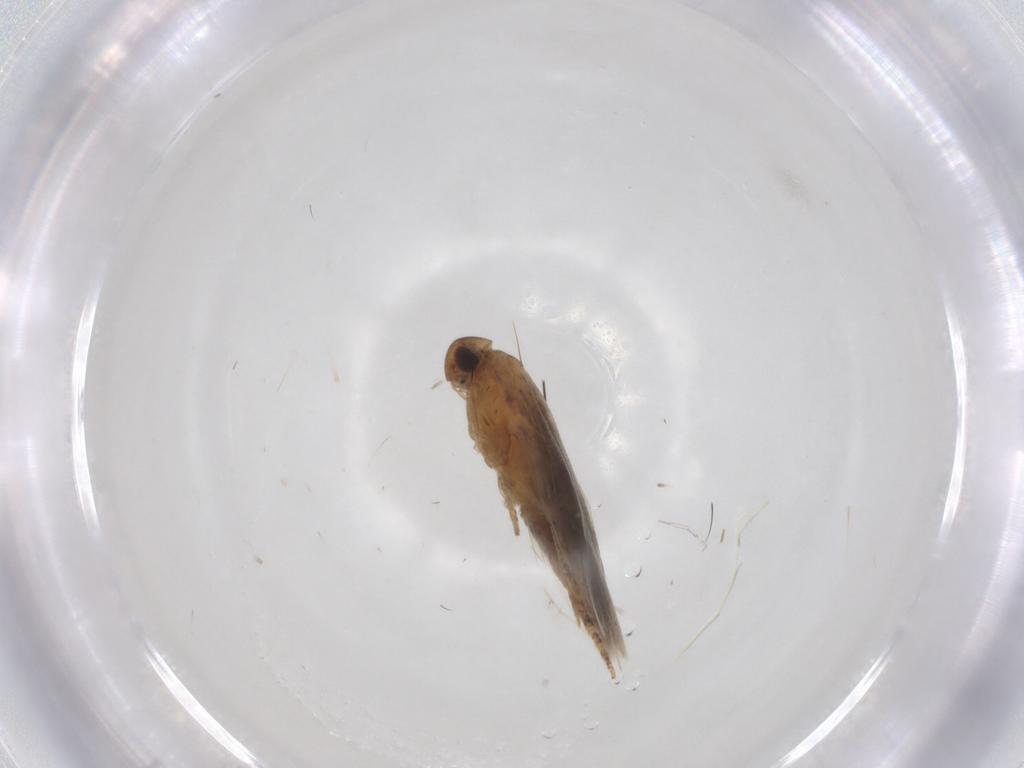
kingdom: Animalia
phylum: Arthropoda
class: Insecta
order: Lepidoptera
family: Gelechiidae
